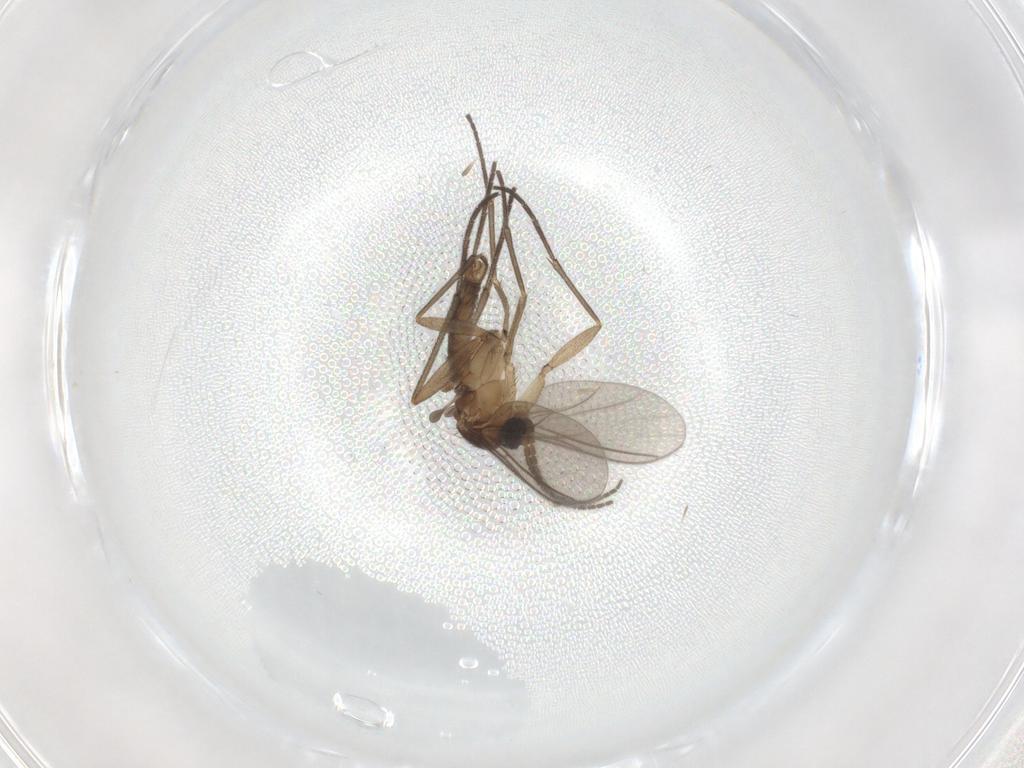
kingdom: Animalia
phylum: Arthropoda
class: Insecta
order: Diptera
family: Sciaridae
